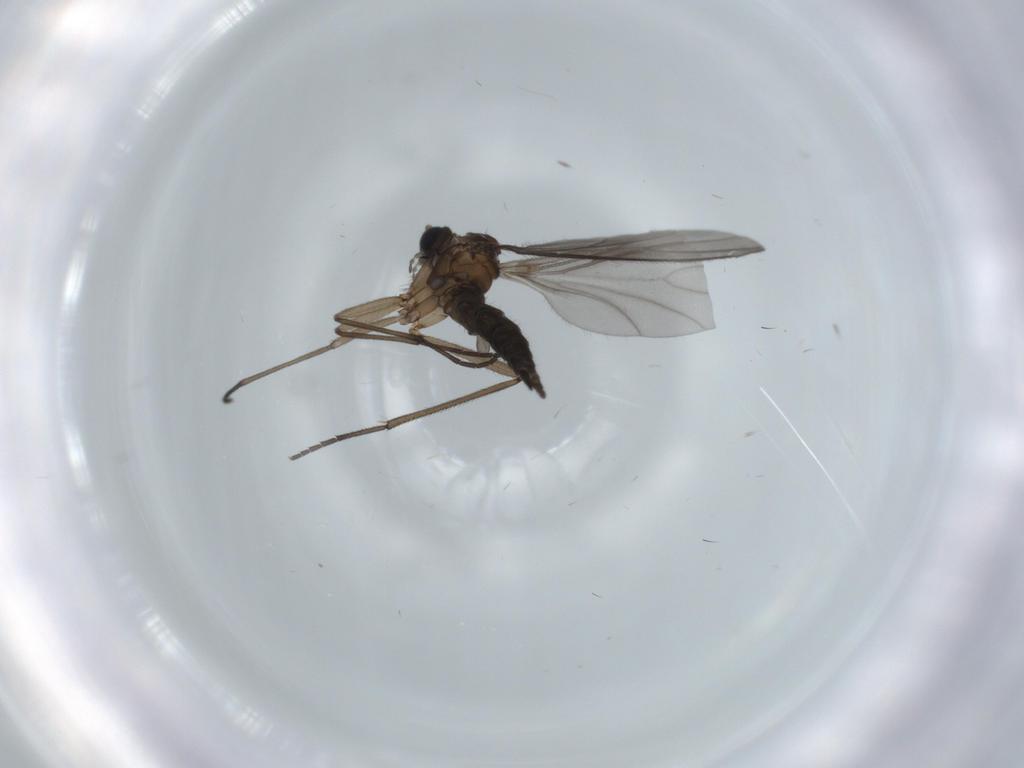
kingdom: Animalia
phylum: Arthropoda
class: Insecta
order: Diptera
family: Sciaridae
